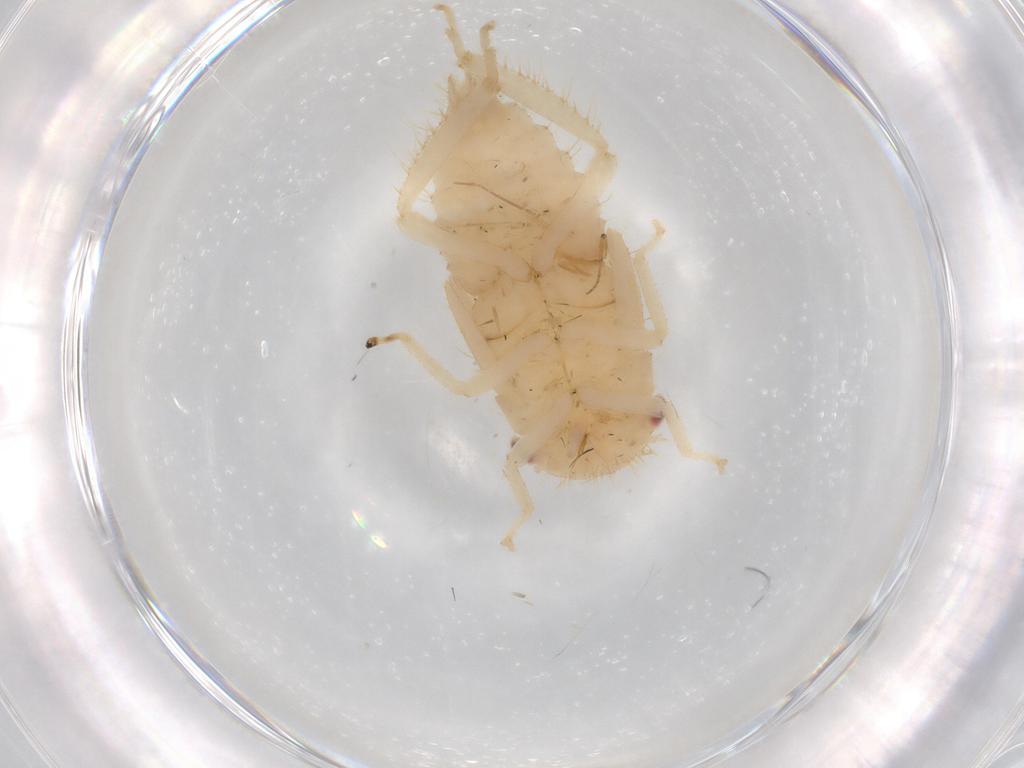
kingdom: Animalia
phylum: Arthropoda
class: Insecta
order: Hemiptera
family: Cicadellidae
